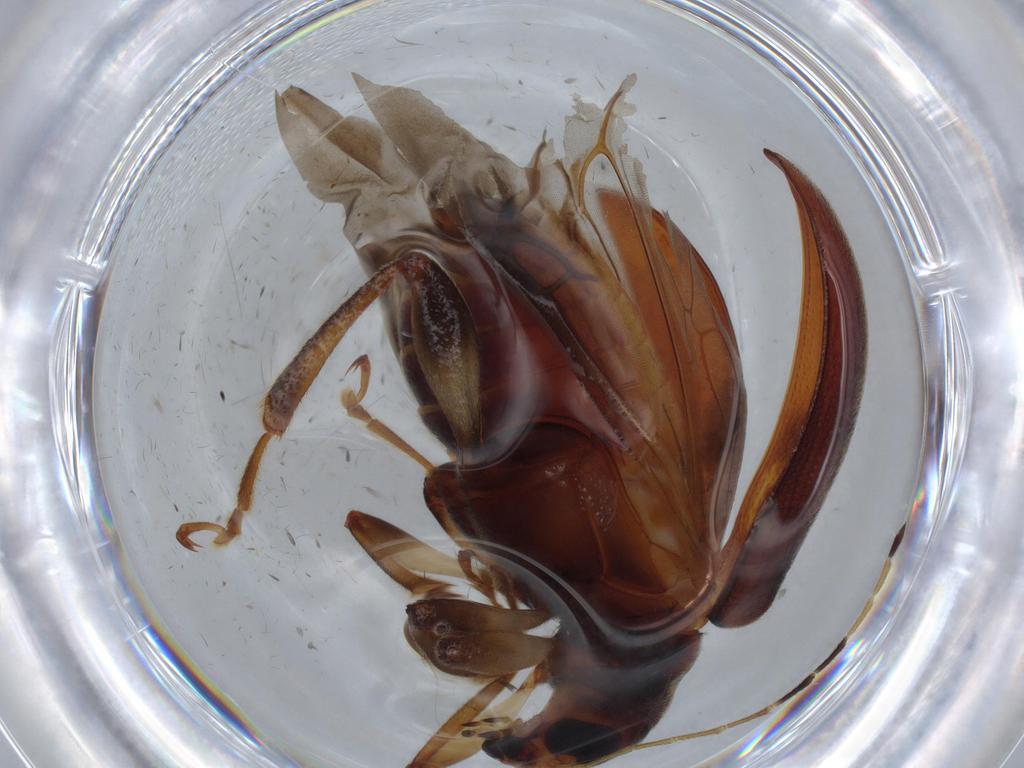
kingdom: Animalia
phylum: Arthropoda
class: Insecta
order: Coleoptera
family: Chrysomelidae
